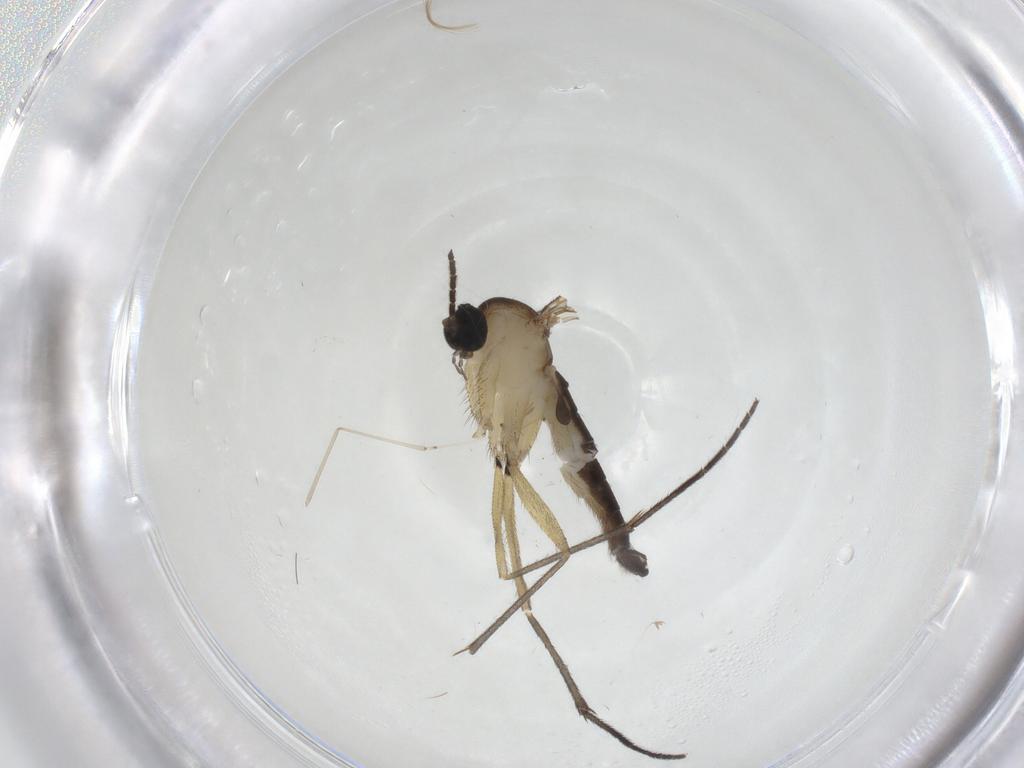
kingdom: Animalia
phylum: Arthropoda
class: Insecta
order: Diptera
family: Sciaridae
